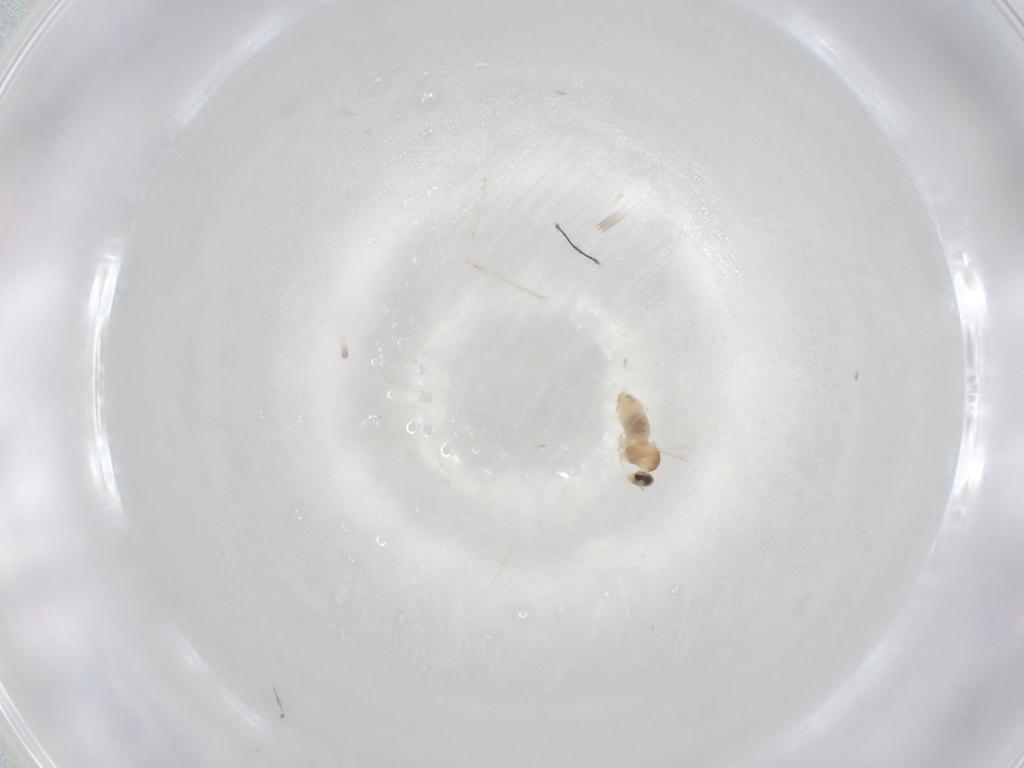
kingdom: Animalia
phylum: Arthropoda
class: Insecta
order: Diptera
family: Cecidomyiidae
